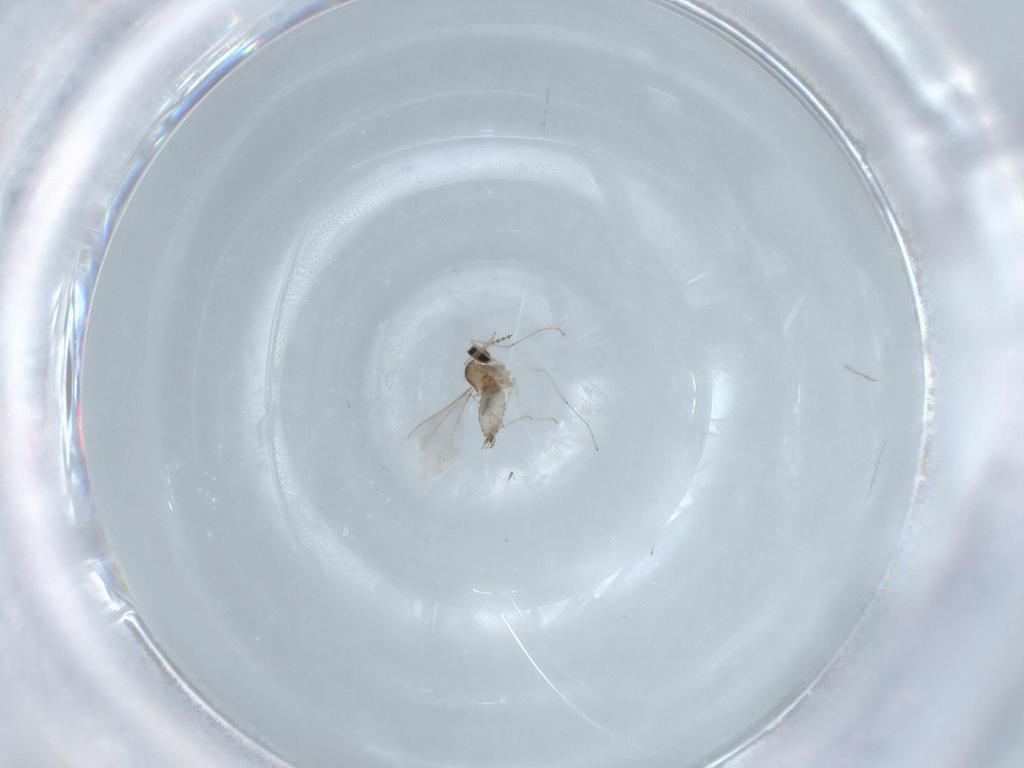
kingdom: Animalia
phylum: Arthropoda
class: Insecta
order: Diptera
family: Cecidomyiidae
